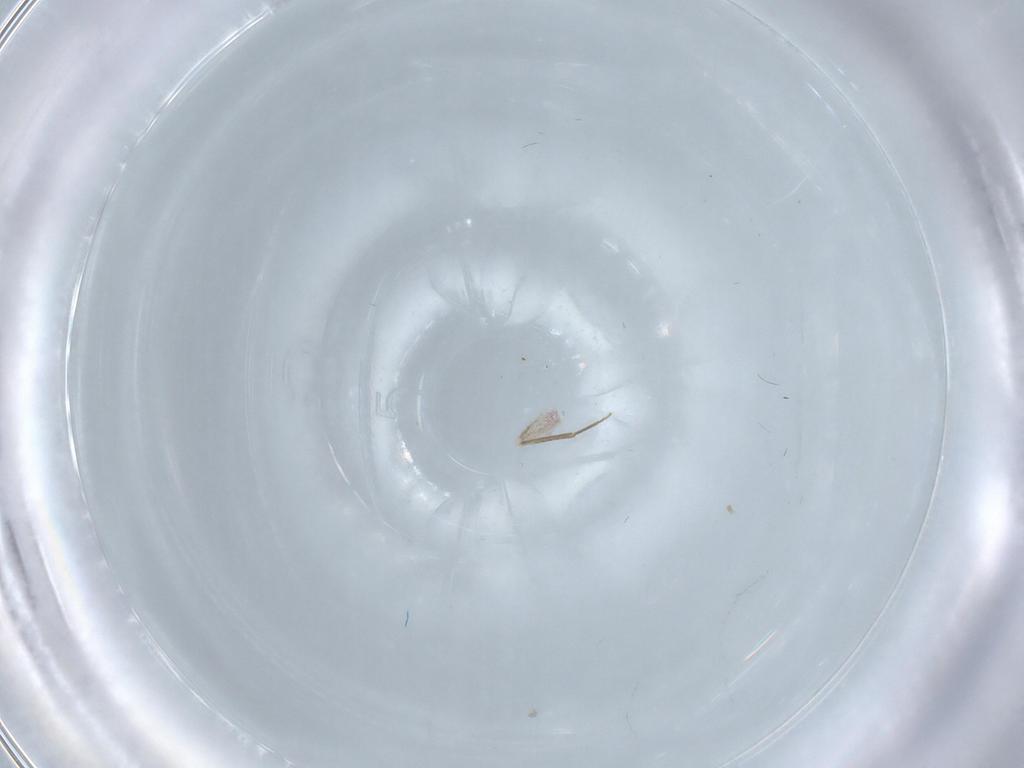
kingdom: Animalia
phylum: Arthropoda
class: Insecta
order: Psocodea
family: Lepidopsocidae
